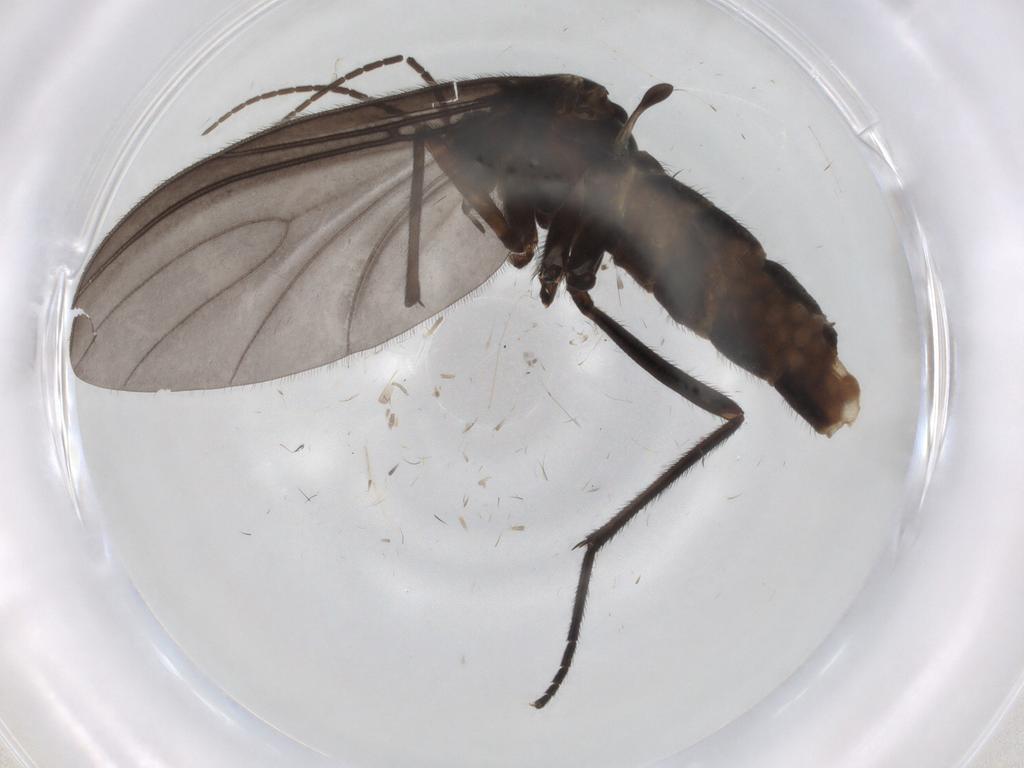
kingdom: Animalia
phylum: Arthropoda
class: Insecta
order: Diptera
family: Sciaridae
